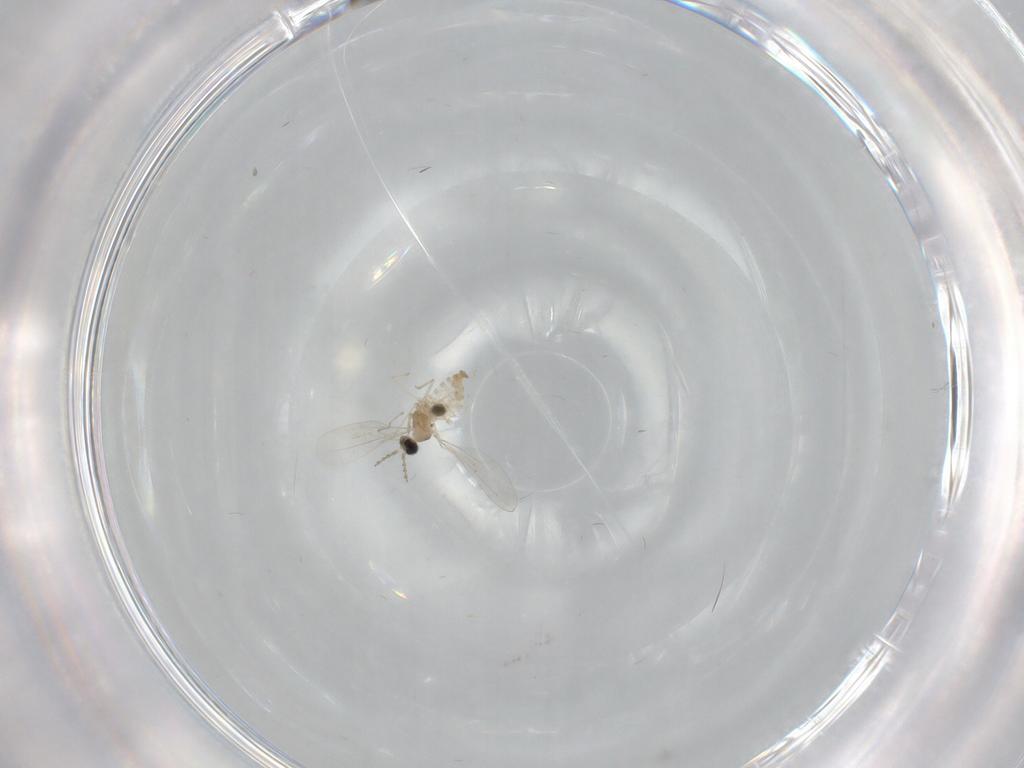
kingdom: Animalia
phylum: Arthropoda
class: Insecta
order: Diptera
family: Cecidomyiidae
